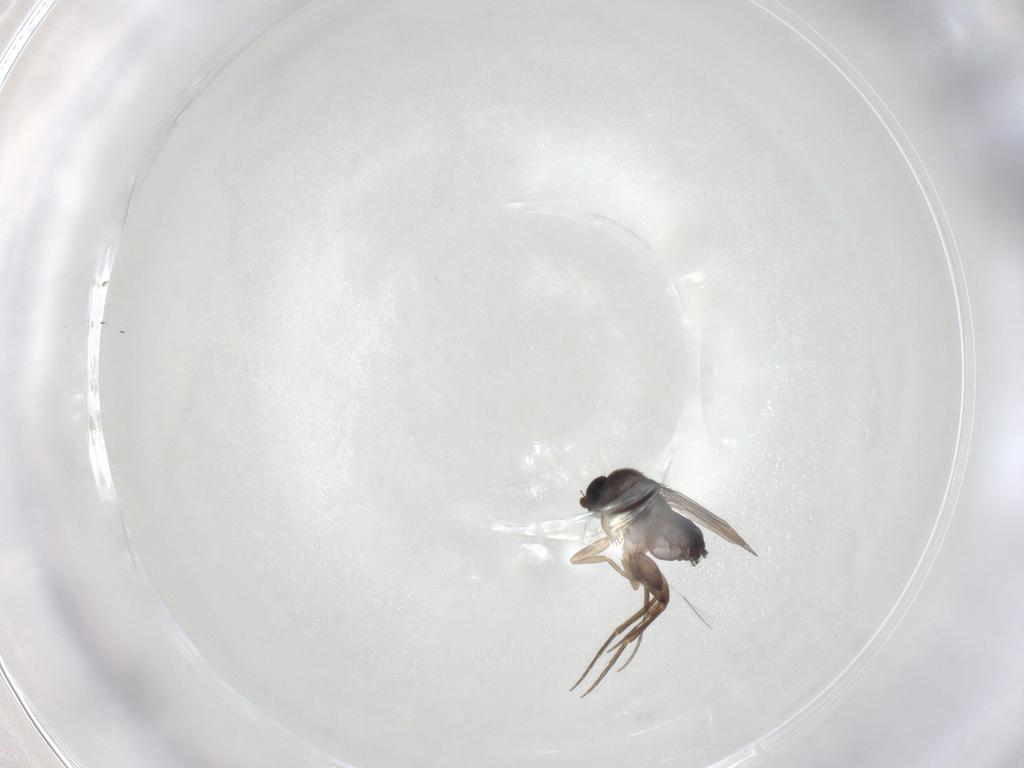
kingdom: Animalia
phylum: Arthropoda
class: Insecta
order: Diptera
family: Phoridae
